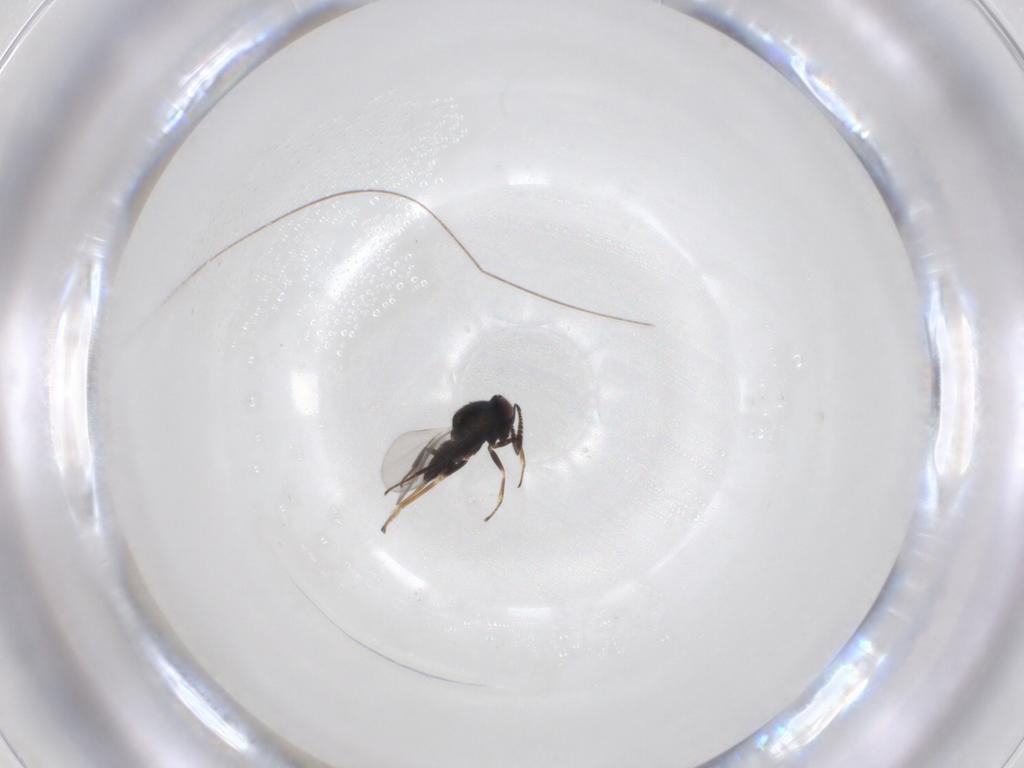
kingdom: Animalia
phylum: Arthropoda
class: Insecta
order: Hymenoptera
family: Encyrtidae
